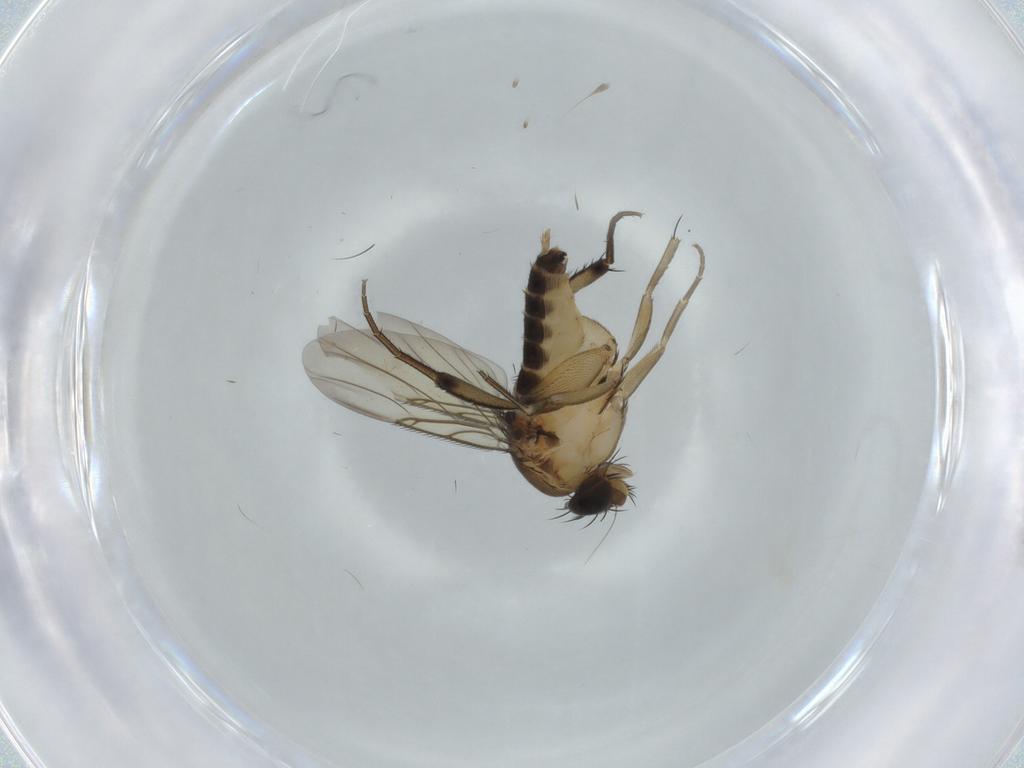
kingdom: Animalia
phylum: Arthropoda
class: Insecta
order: Diptera
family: Phoridae
